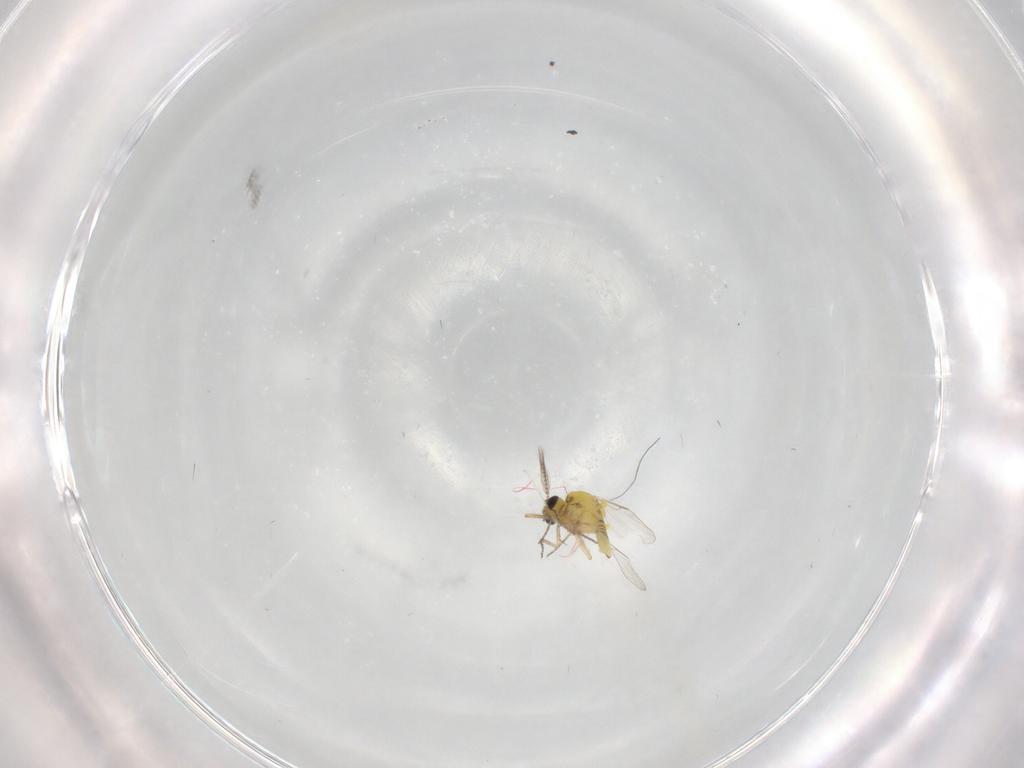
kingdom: Animalia
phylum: Arthropoda
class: Insecta
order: Diptera
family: Ceratopogonidae
